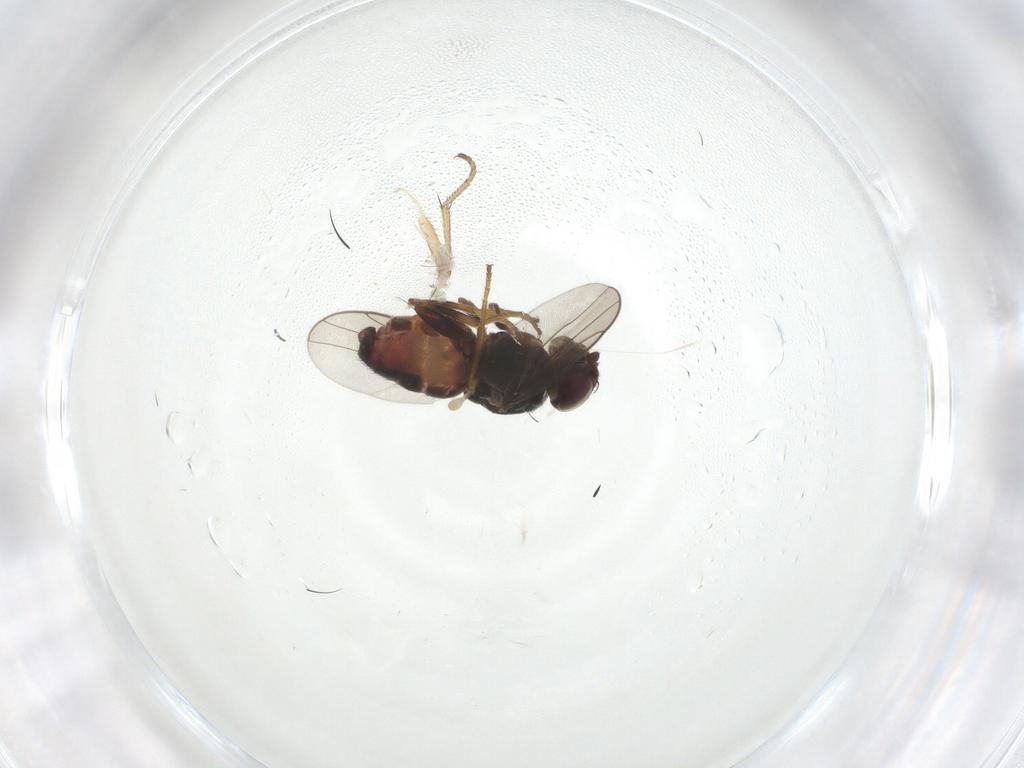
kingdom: Animalia
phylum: Arthropoda
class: Insecta
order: Diptera
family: Chloropidae
